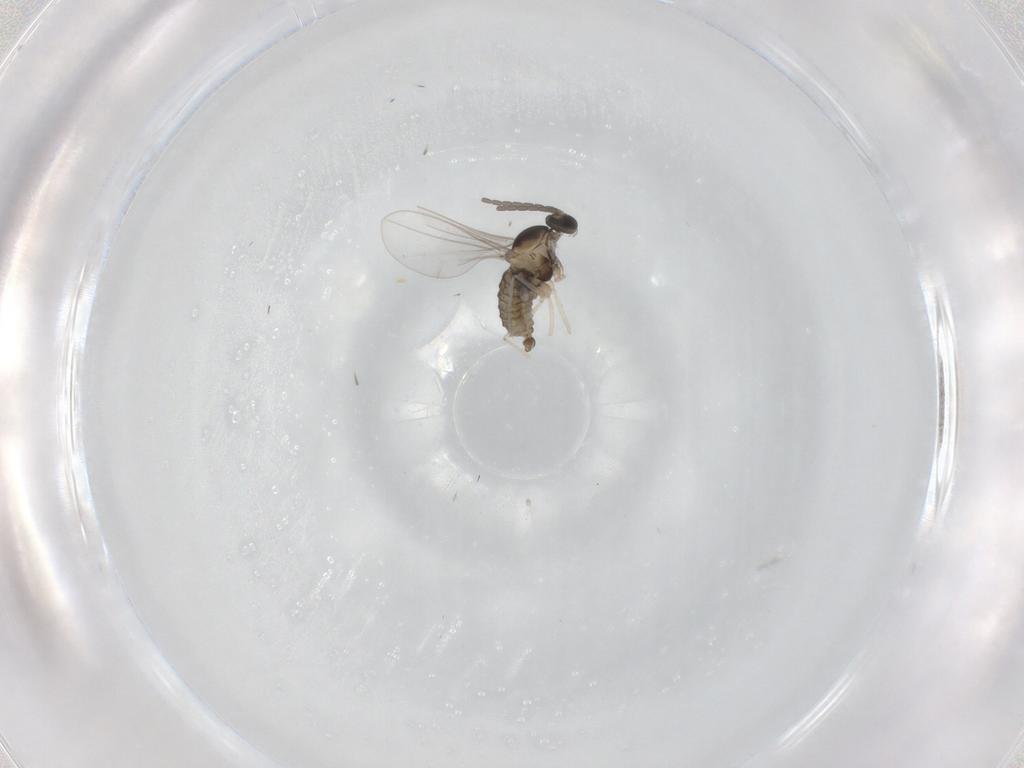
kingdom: Animalia
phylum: Arthropoda
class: Insecta
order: Diptera
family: Cecidomyiidae
